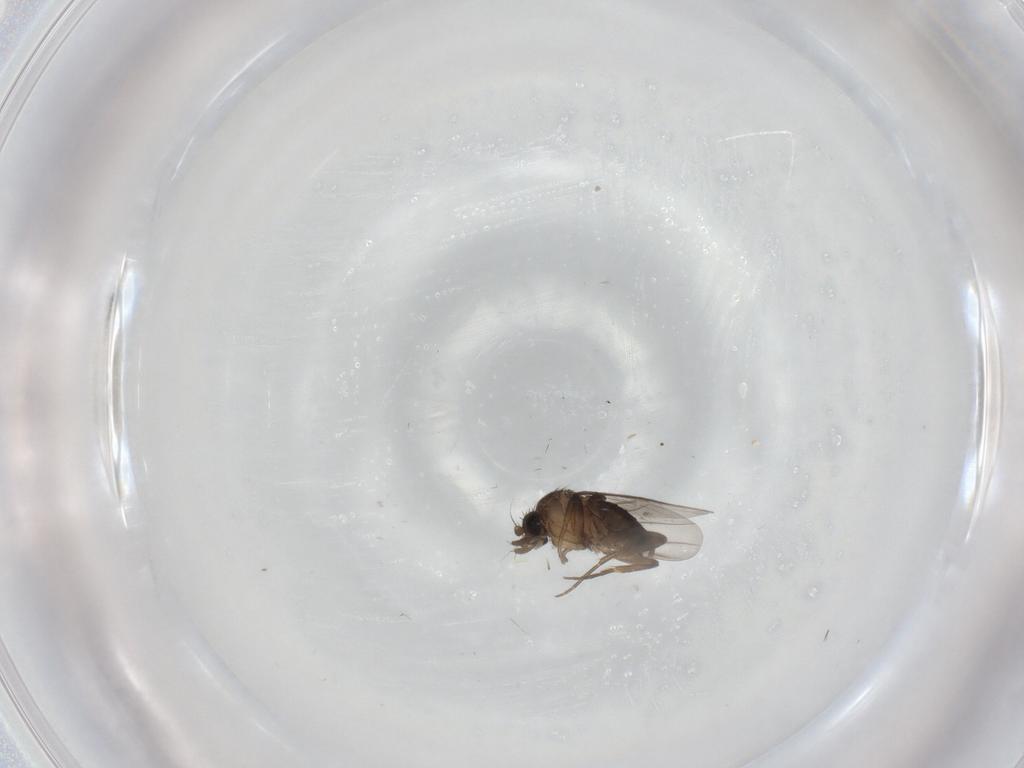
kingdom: Animalia
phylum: Arthropoda
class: Insecta
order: Diptera
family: Phoridae
